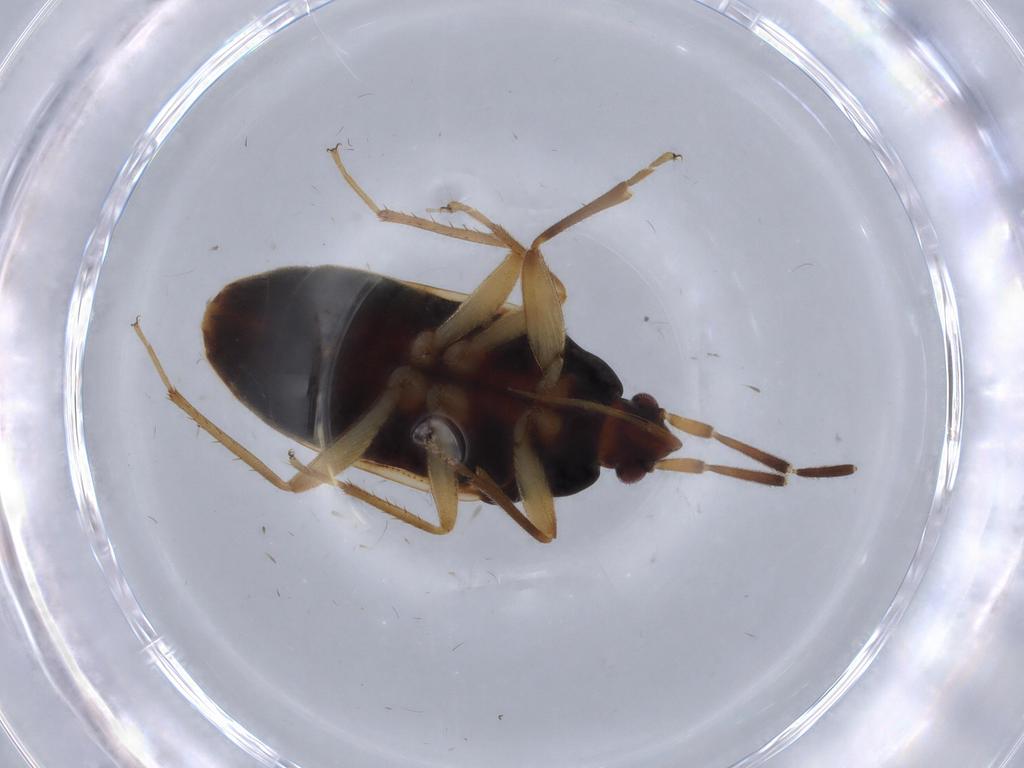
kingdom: Animalia
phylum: Arthropoda
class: Insecta
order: Hemiptera
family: Rhyparochromidae
